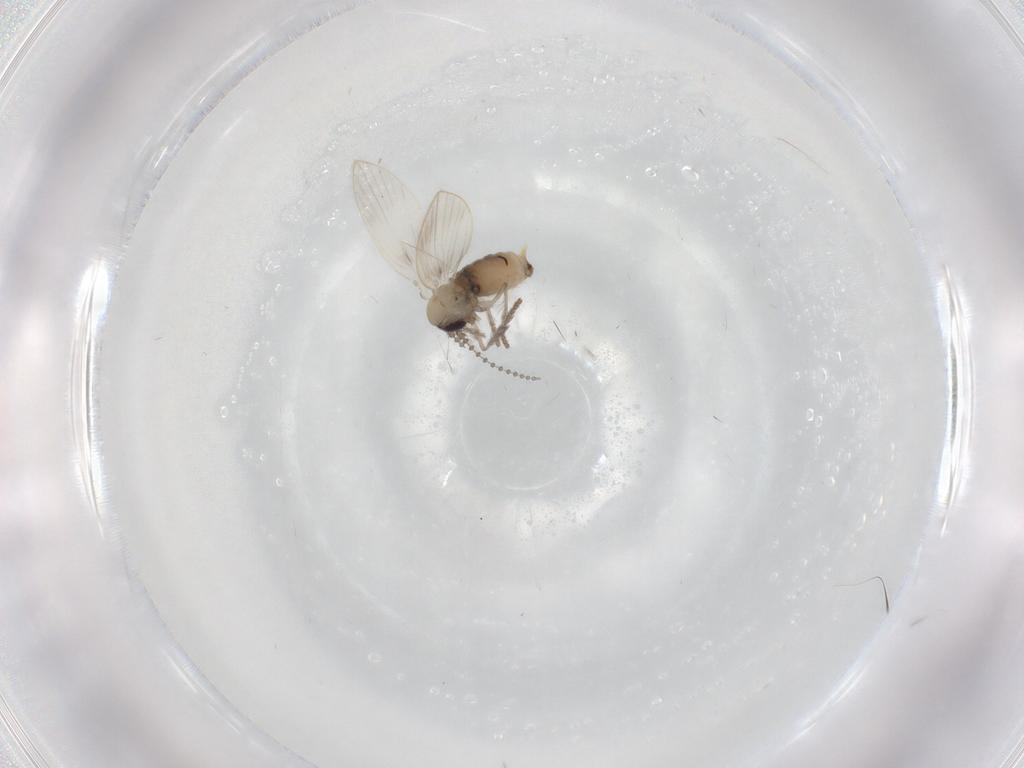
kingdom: Animalia
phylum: Arthropoda
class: Insecta
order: Diptera
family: Psychodidae
